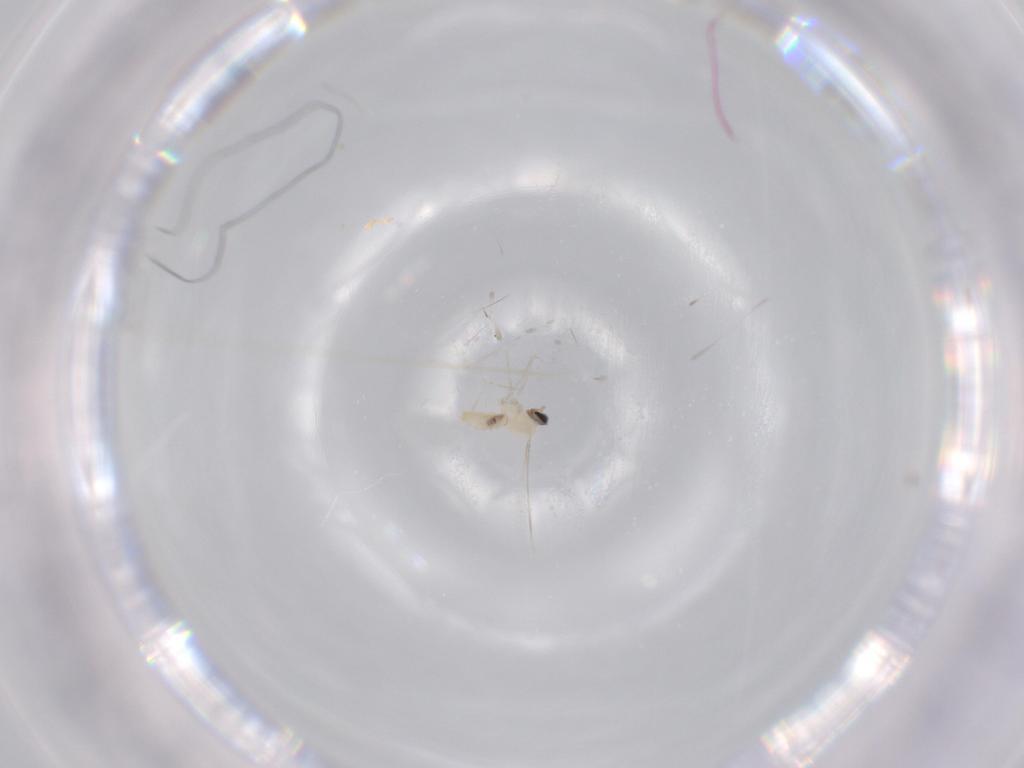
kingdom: Animalia
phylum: Arthropoda
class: Insecta
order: Diptera
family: Cecidomyiidae
